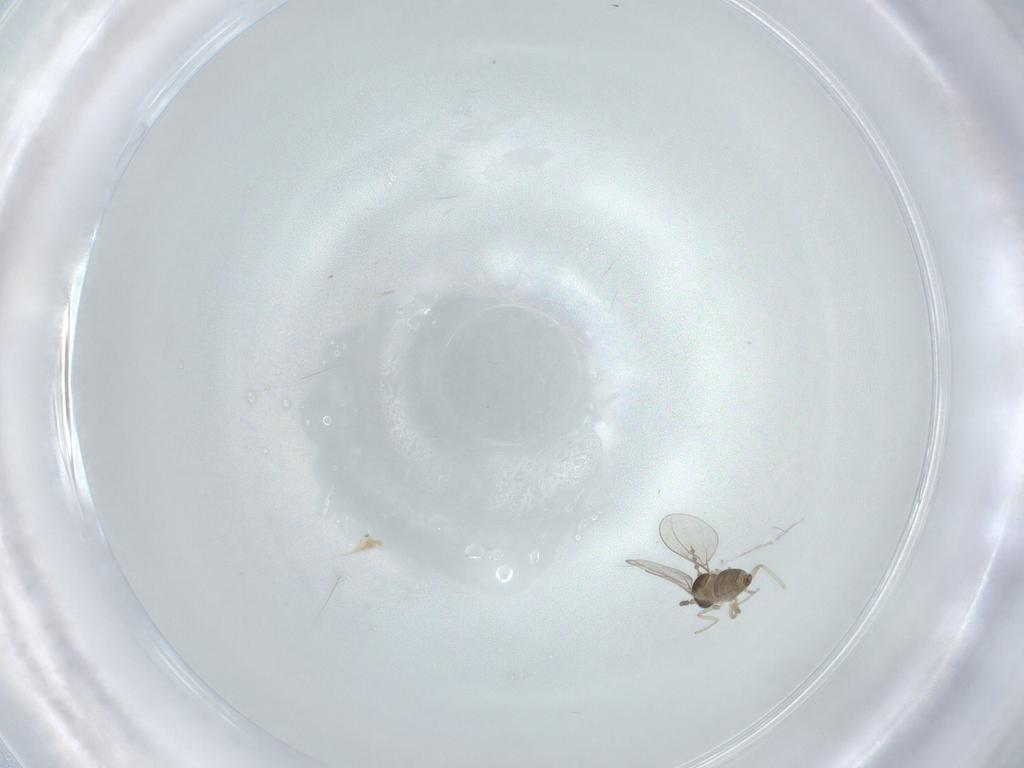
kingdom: Animalia
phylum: Arthropoda
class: Insecta
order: Diptera
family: Cecidomyiidae
